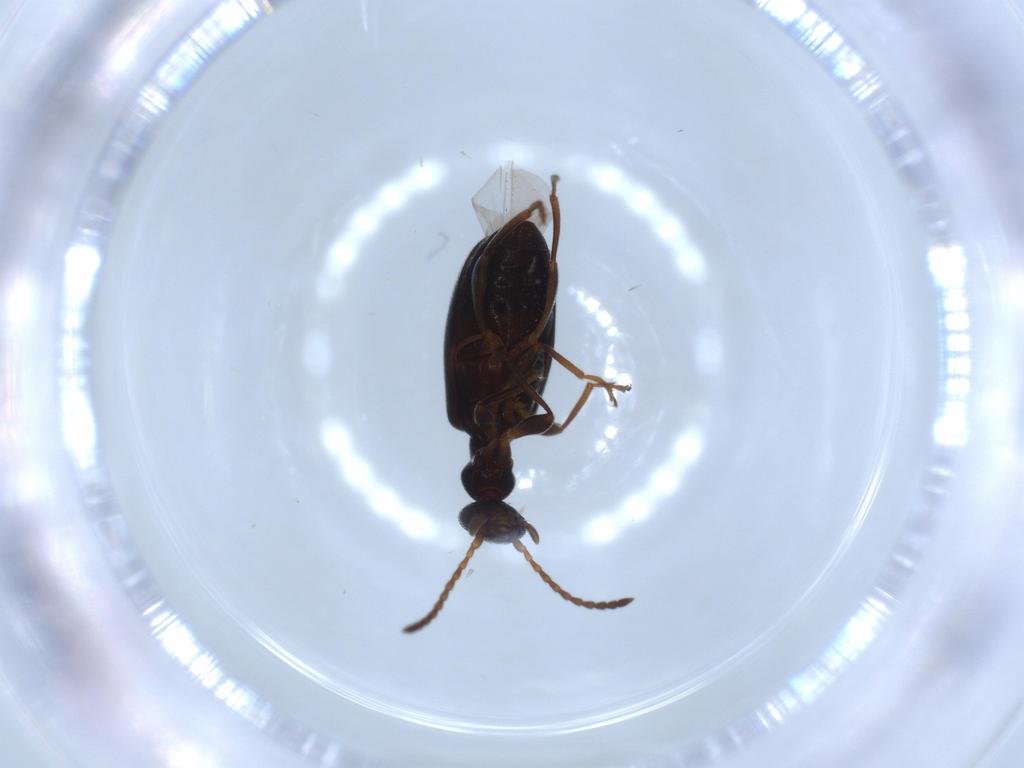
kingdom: Animalia
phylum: Arthropoda
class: Insecta
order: Coleoptera
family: Anthicidae
